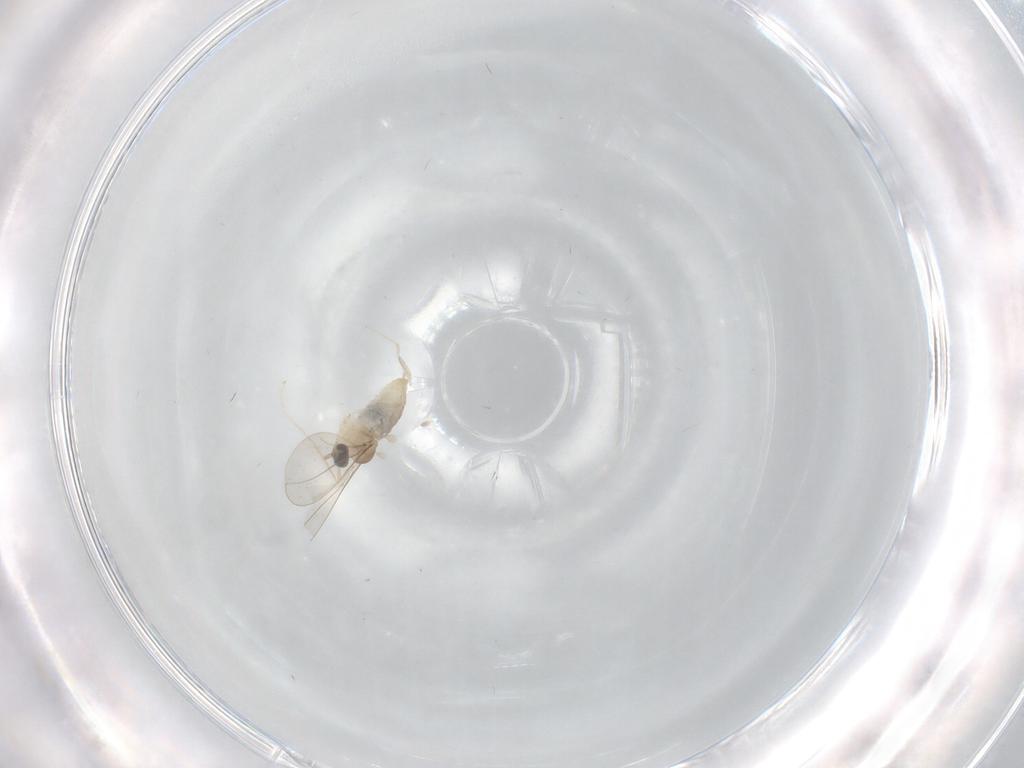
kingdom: Animalia
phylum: Arthropoda
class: Insecta
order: Diptera
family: Cecidomyiidae
